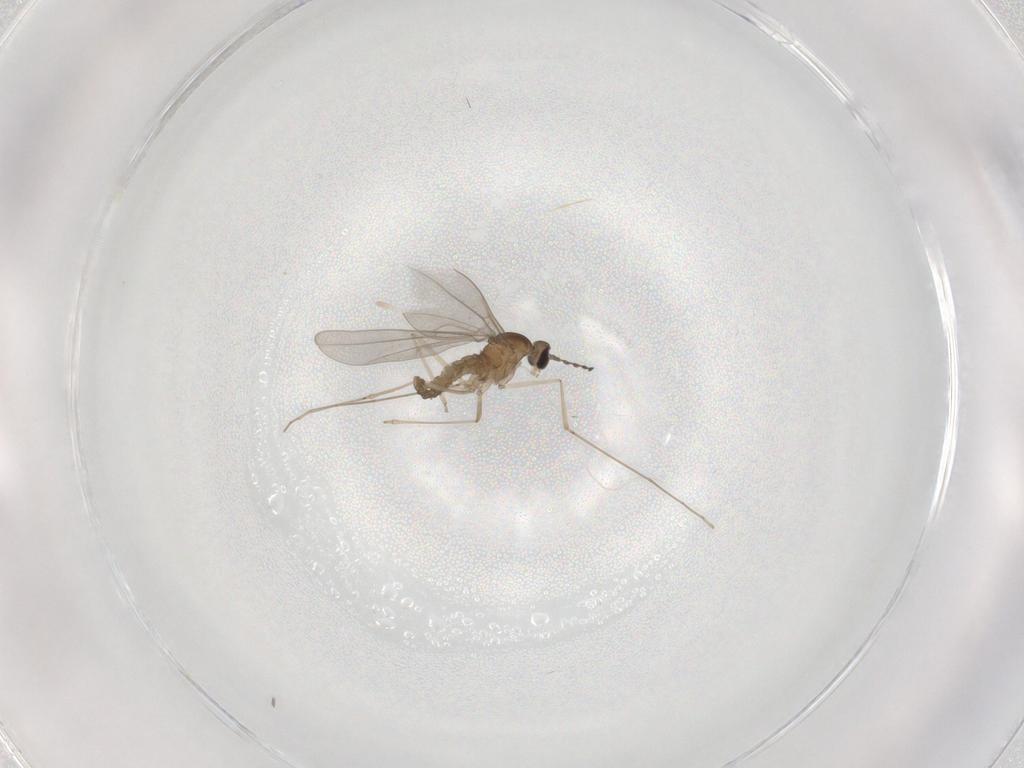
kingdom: Animalia
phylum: Arthropoda
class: Insecta
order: Diptera
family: Cecidomyiidae
